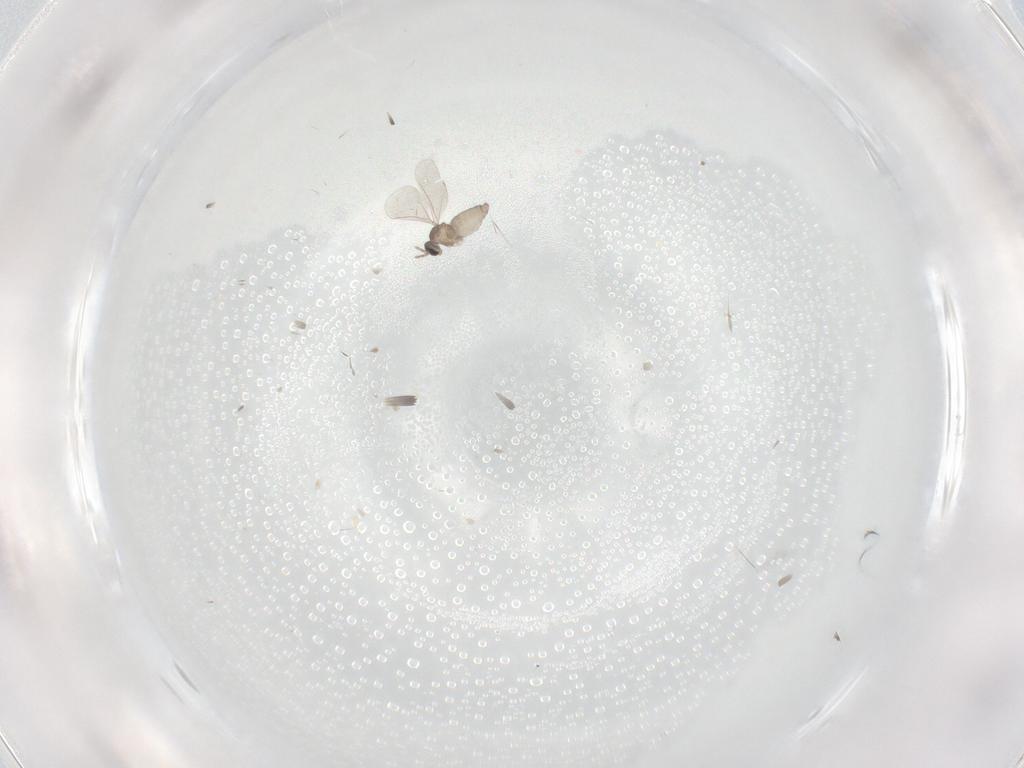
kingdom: Animalia
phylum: Arthropoda
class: Insecta
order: Diptera
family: Cecidomyiidae
